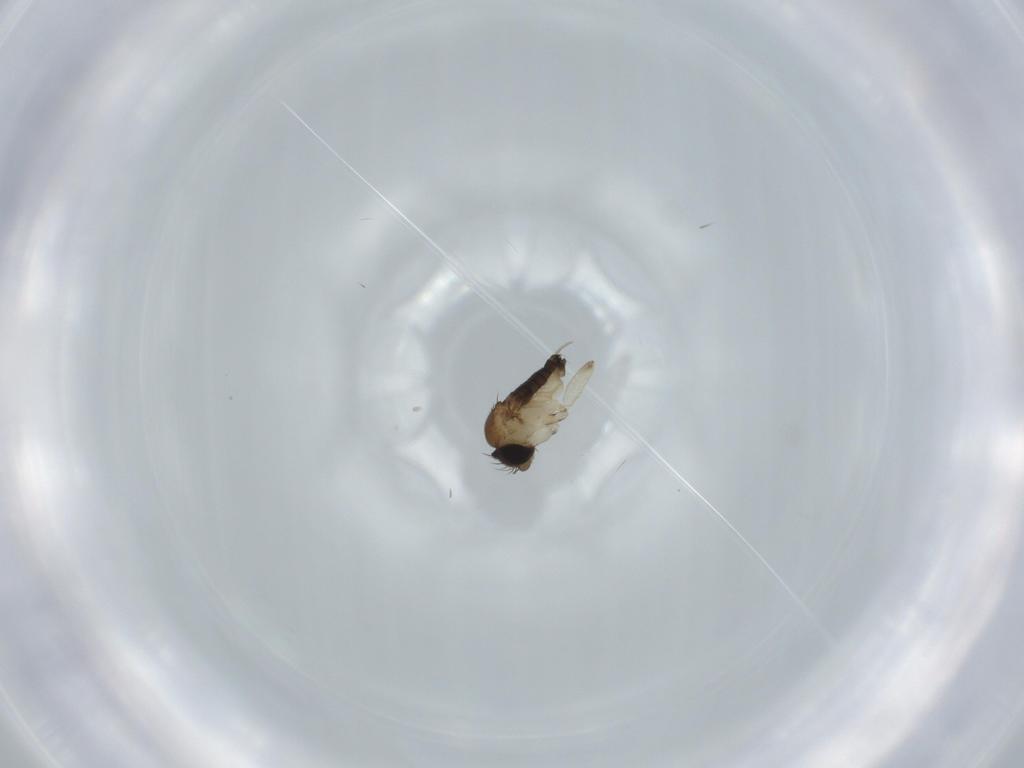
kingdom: Animalia
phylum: Arthropoda
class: Insecta
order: Diptera
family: Phoridae
